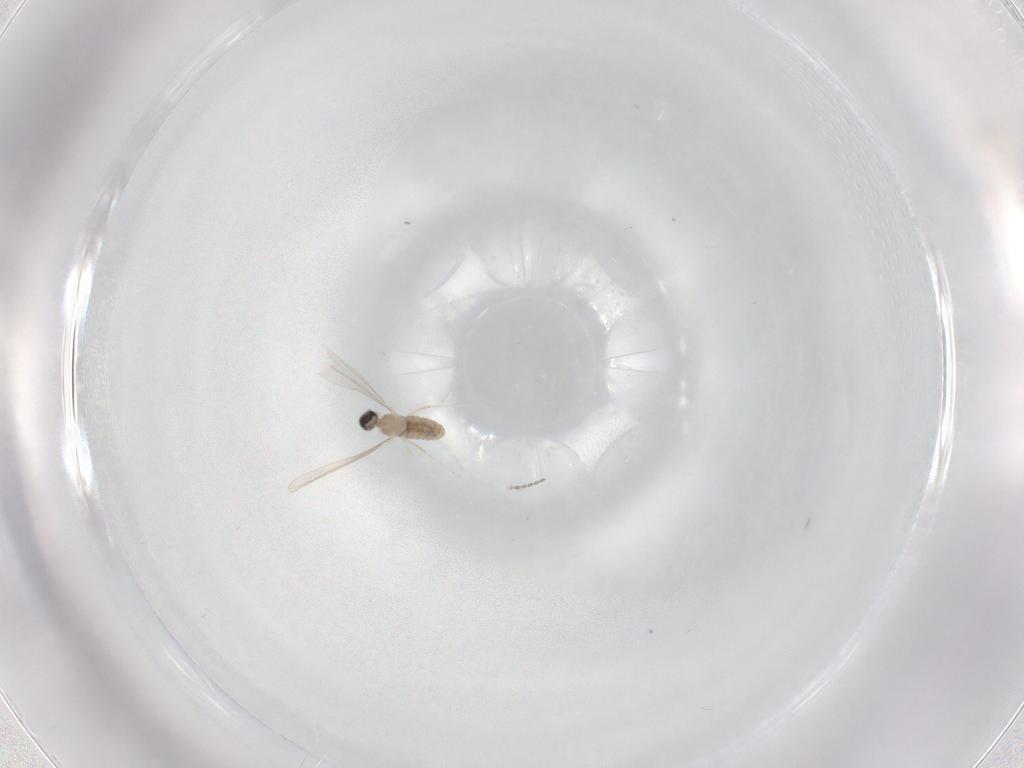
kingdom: Animalia
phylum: Arthropoda
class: Insecta
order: Diptera
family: Cecidomyiidae
